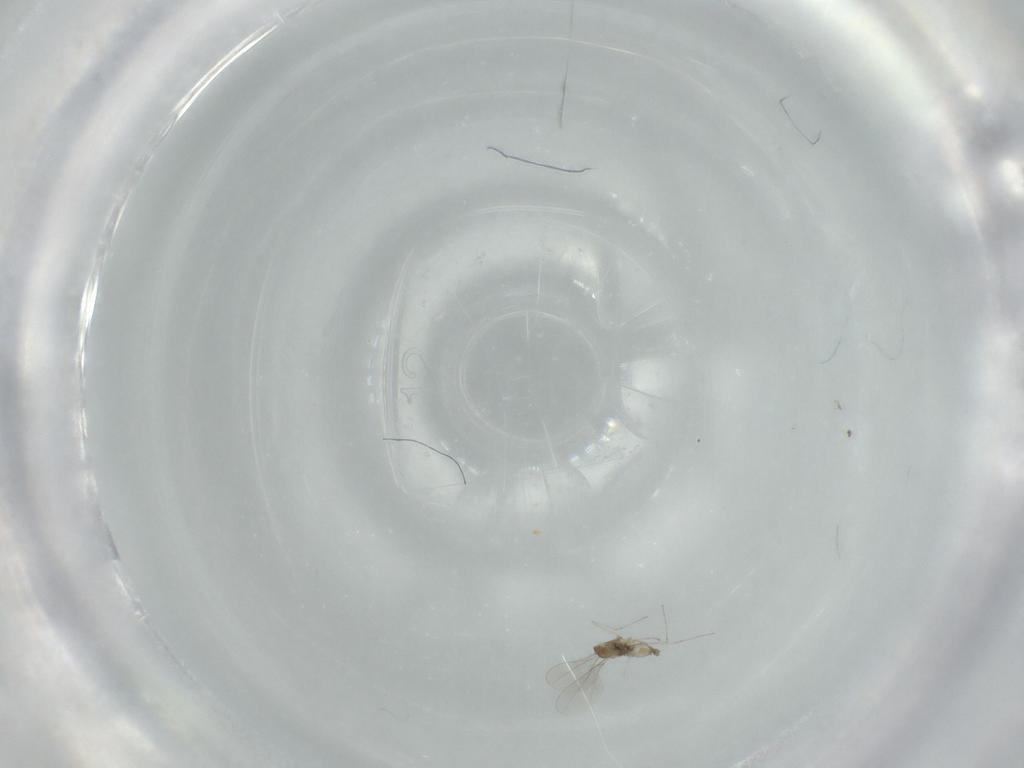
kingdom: Animalia
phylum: Arthropoda
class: Insecta
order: Diptera
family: Cecidomyiidae
